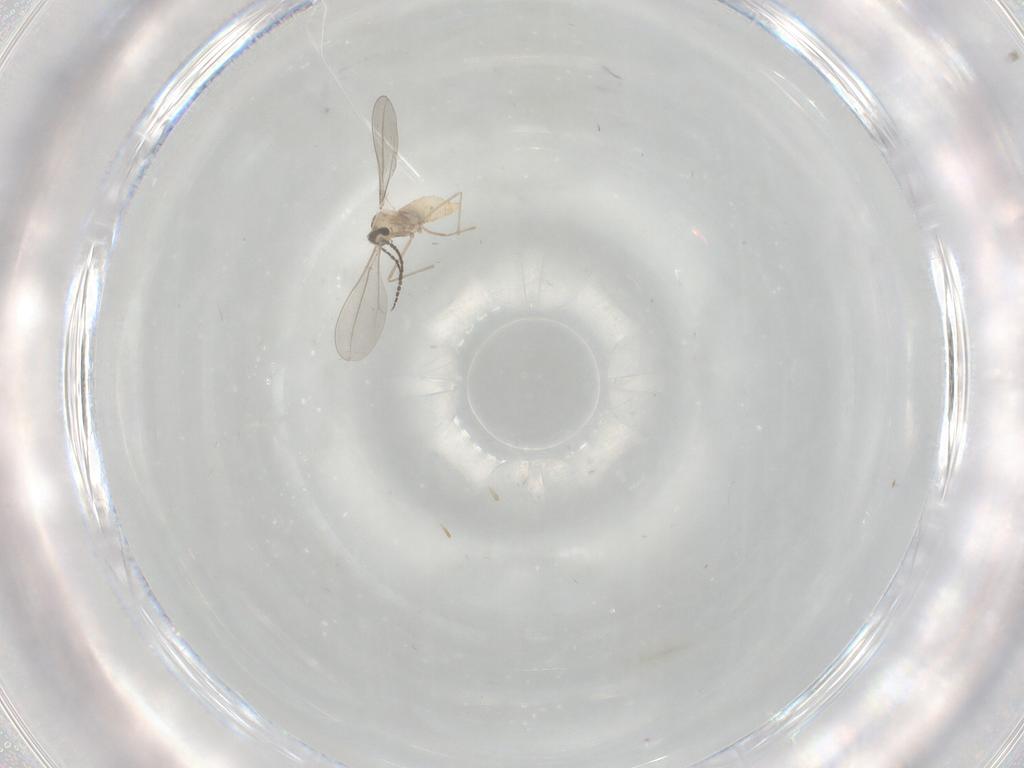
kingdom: Animalia
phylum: Arthropoda
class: Insecta
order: Diptera
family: Cecidomyiidae
